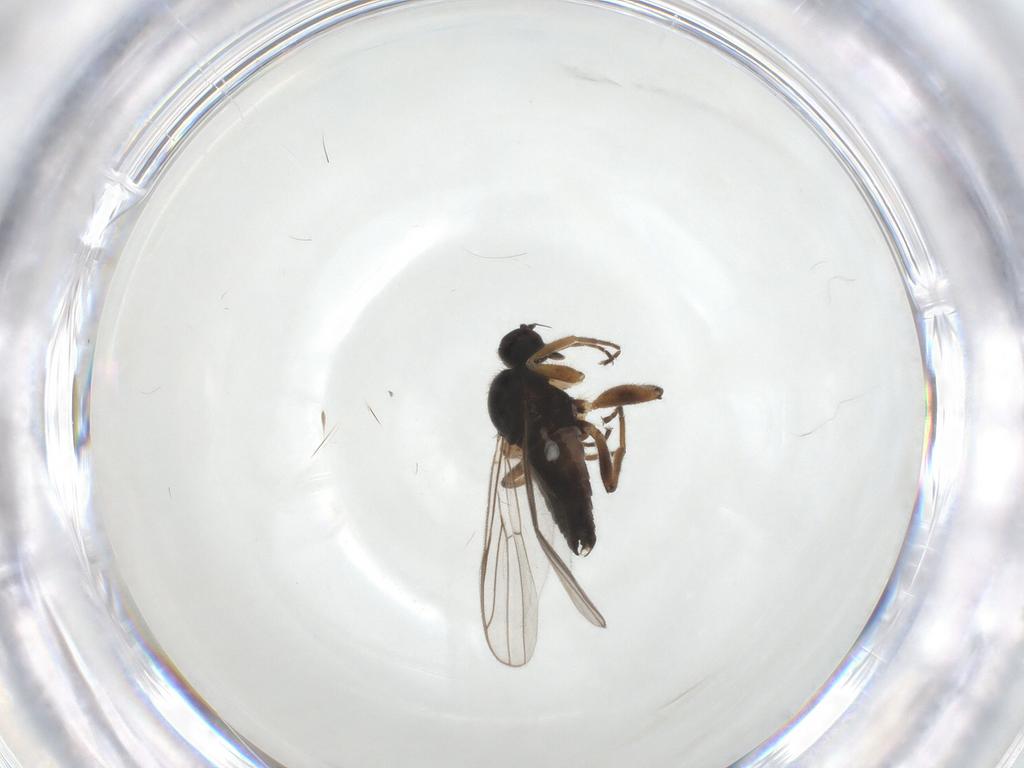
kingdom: Animalia
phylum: Arthropoda
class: Insecta
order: Diptera
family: Hybotidae
